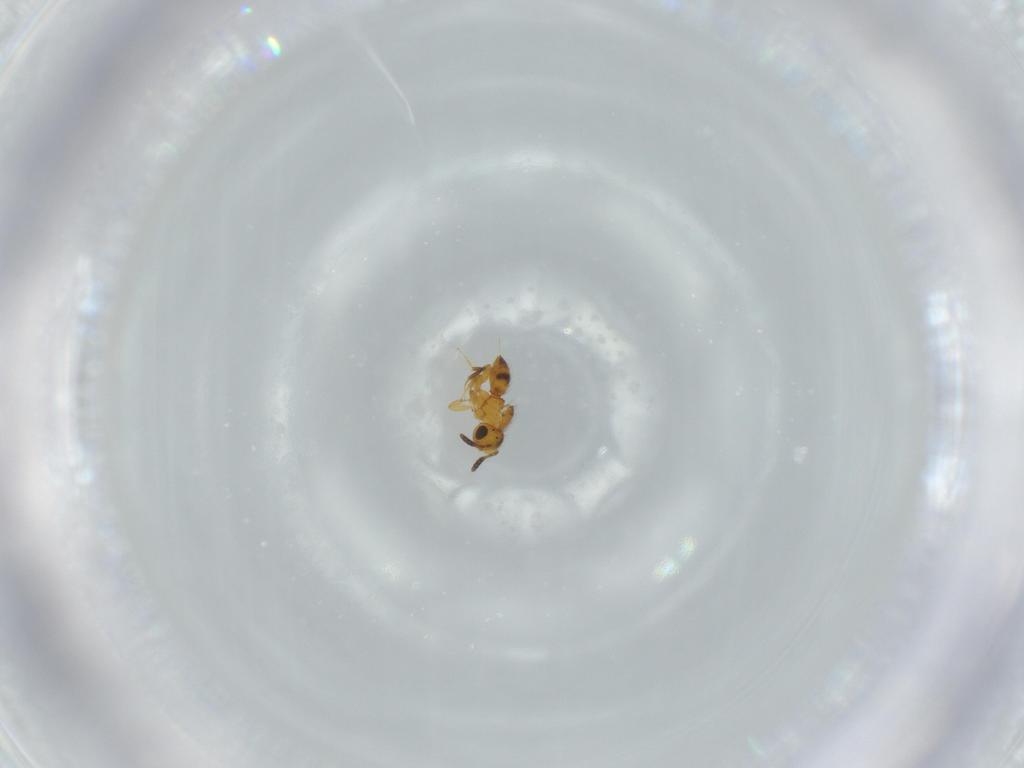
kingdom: Animalia
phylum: Arthropoda
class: Insecta
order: Hymenoptera
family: Scelionidae
